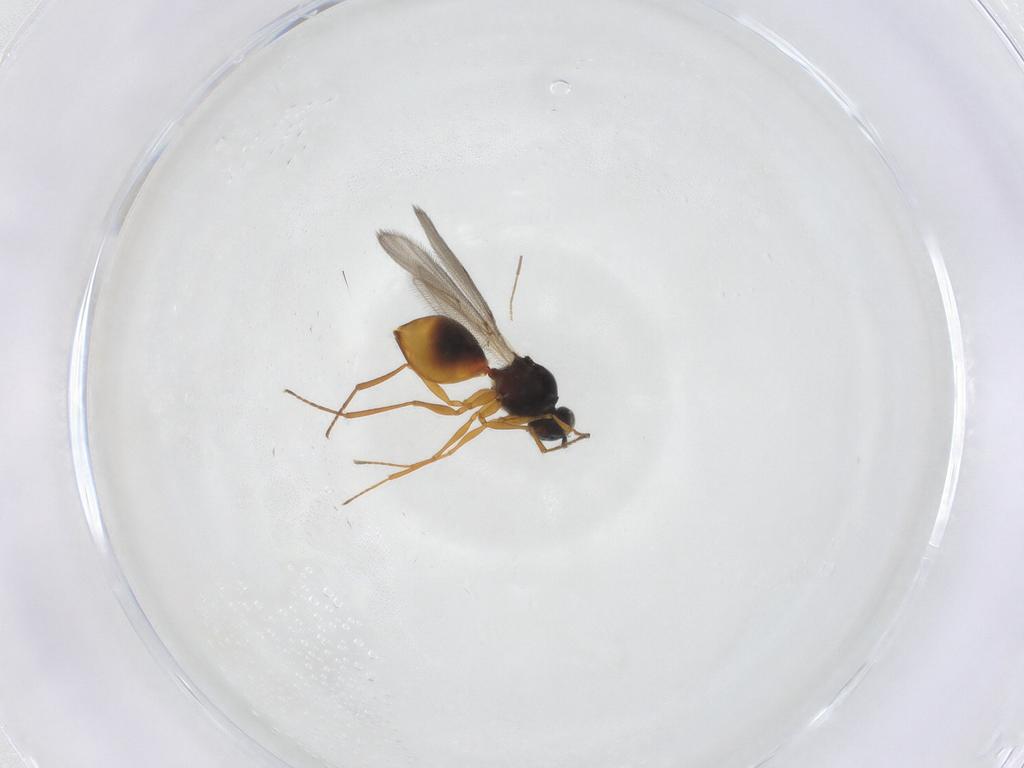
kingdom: Animalia
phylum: Arthropoda
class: Insecta
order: Hymenoptera
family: Figitidae
